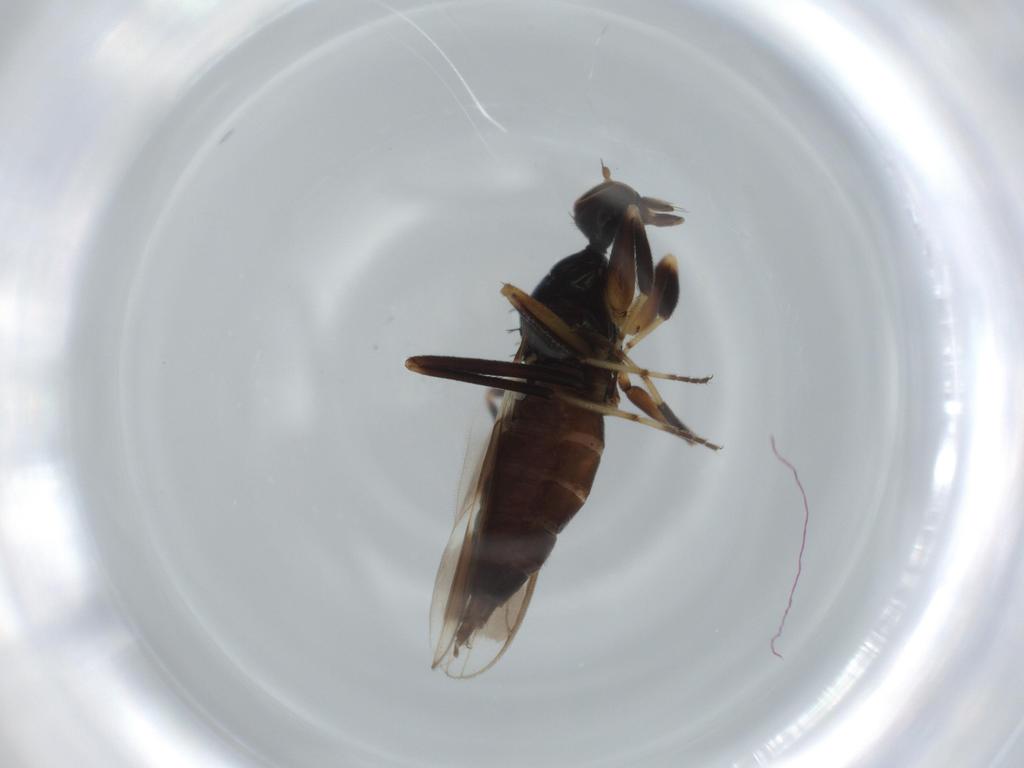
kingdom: Animalia
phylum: Arthropoda
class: Insecta
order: Diptera
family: Hybotidae
